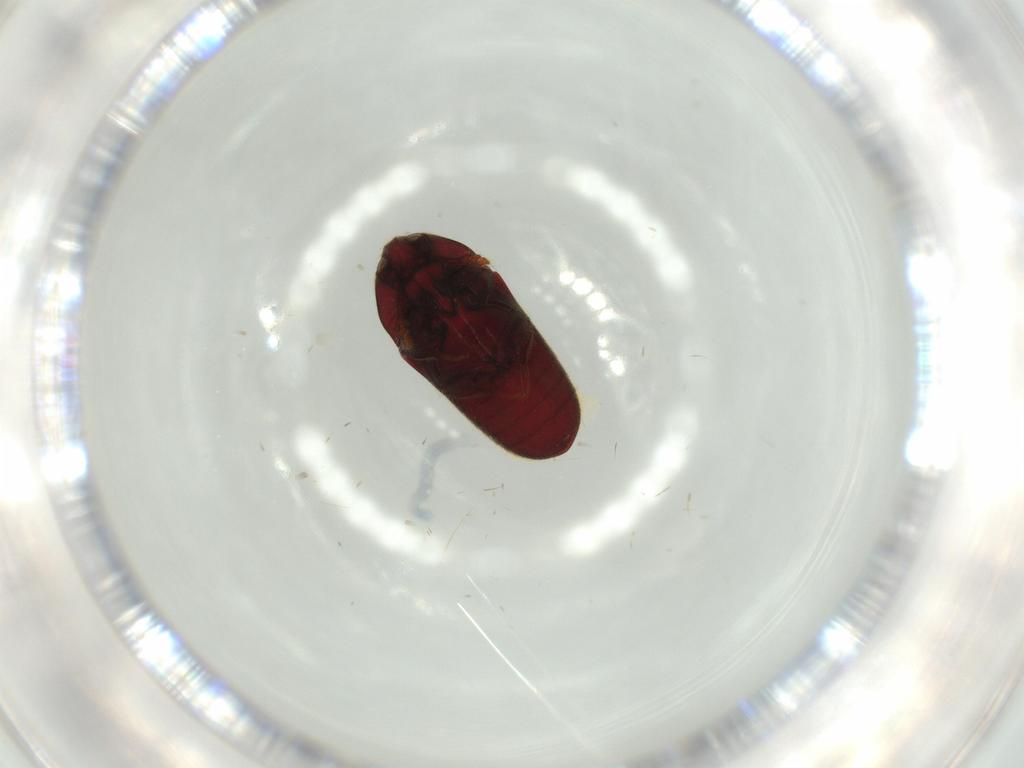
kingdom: Animalia
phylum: Arthropoda
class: Insecta
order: Coleoptera
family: Throscidae
